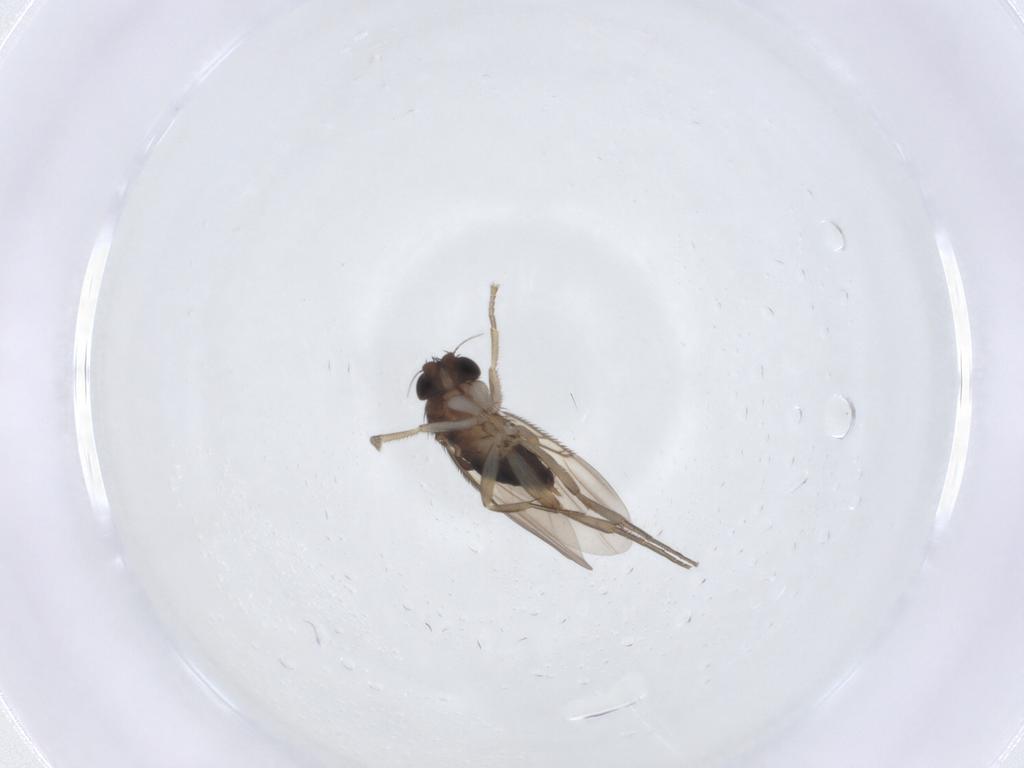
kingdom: Animalia
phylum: Arthropoda
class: Insecta
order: Diptera
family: Phoridae
